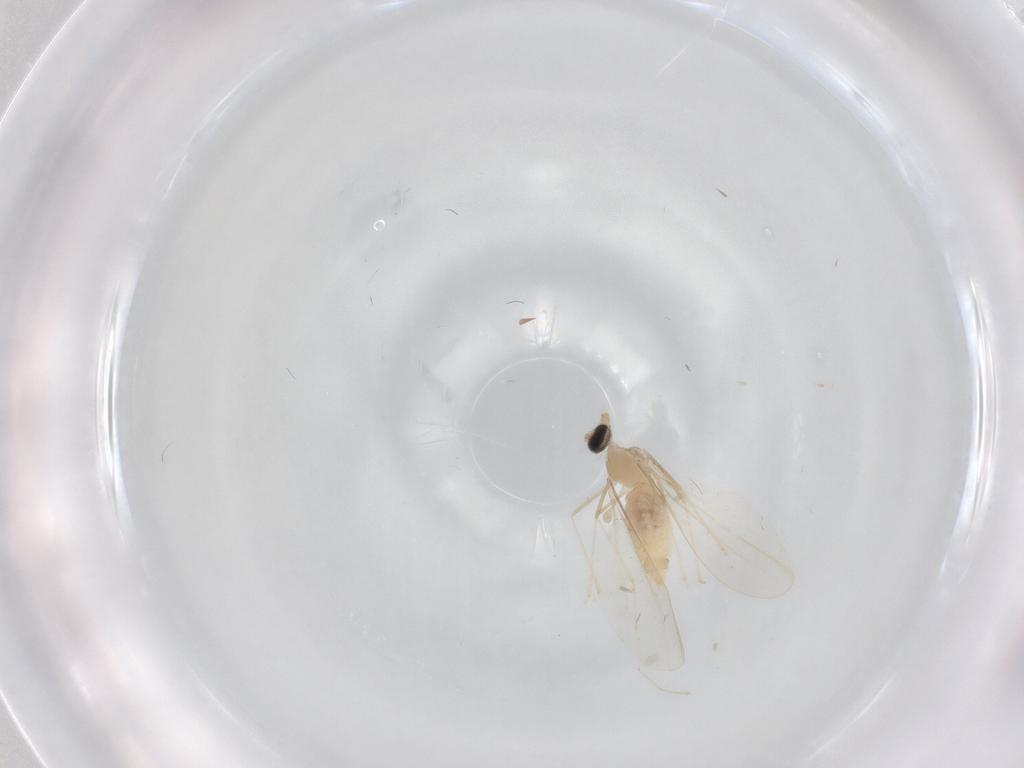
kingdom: Animalia
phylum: Arthropoda
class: Insecta
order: Diptera
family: Cecidomyiidae
